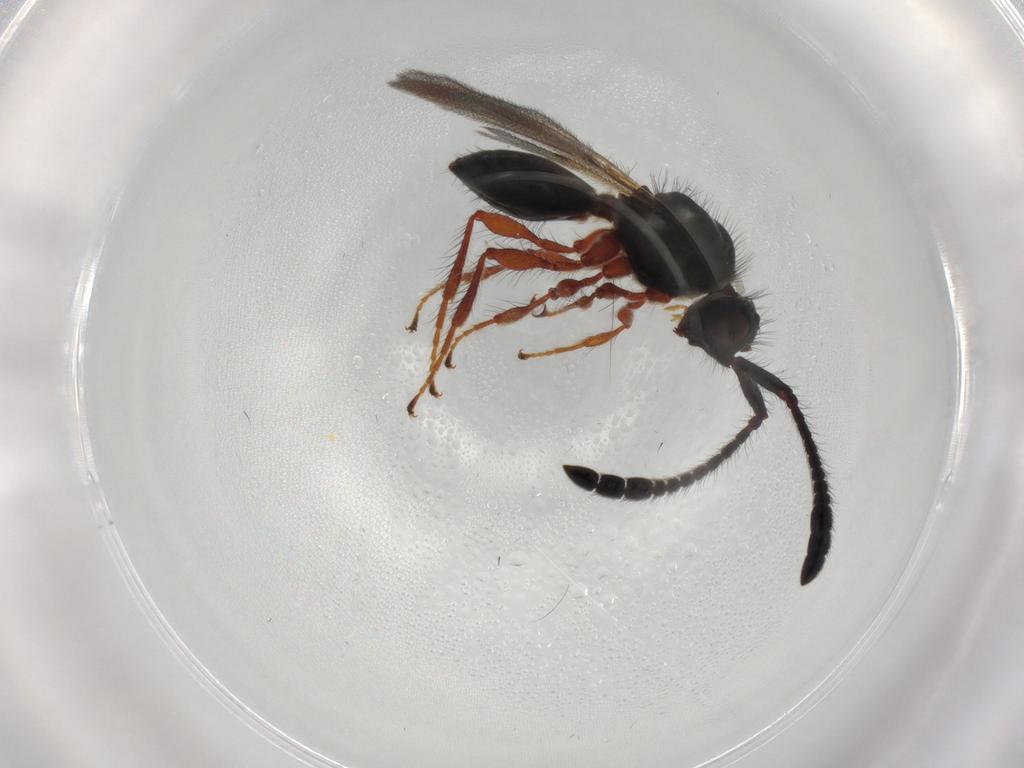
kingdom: Animalia
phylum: Arthropoda
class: Insecta
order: Hymenoptera
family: Diapriidae
